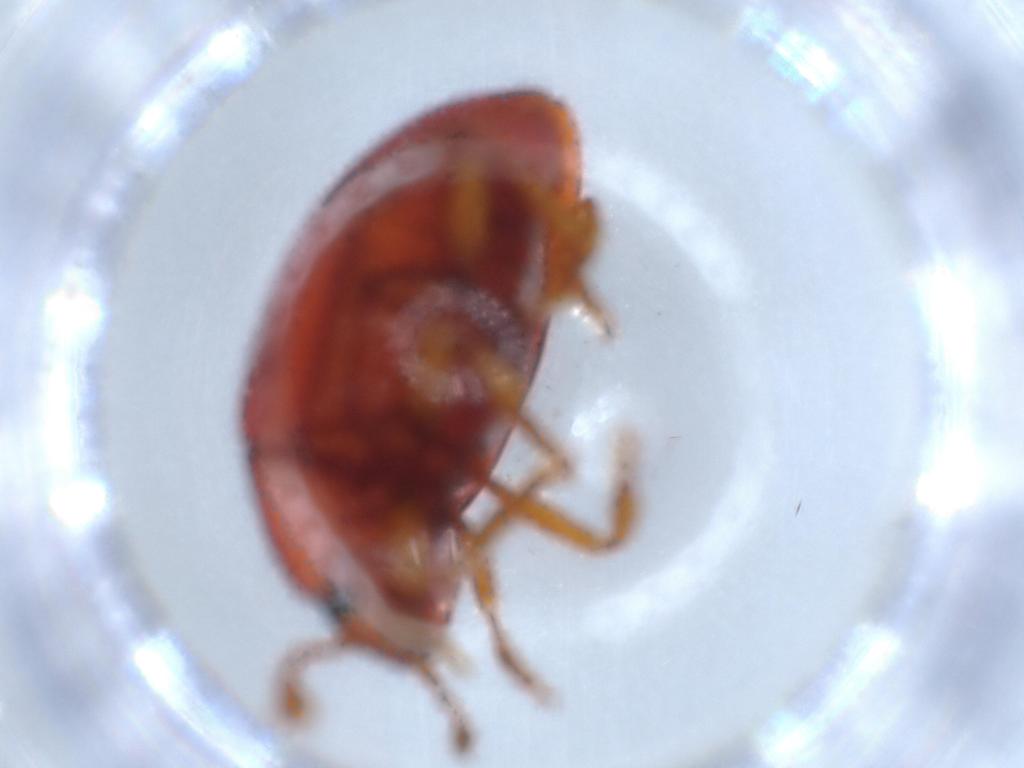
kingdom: Animalia
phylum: Arthropoda
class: Insecta
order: Coleoptera
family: Erotylidae
